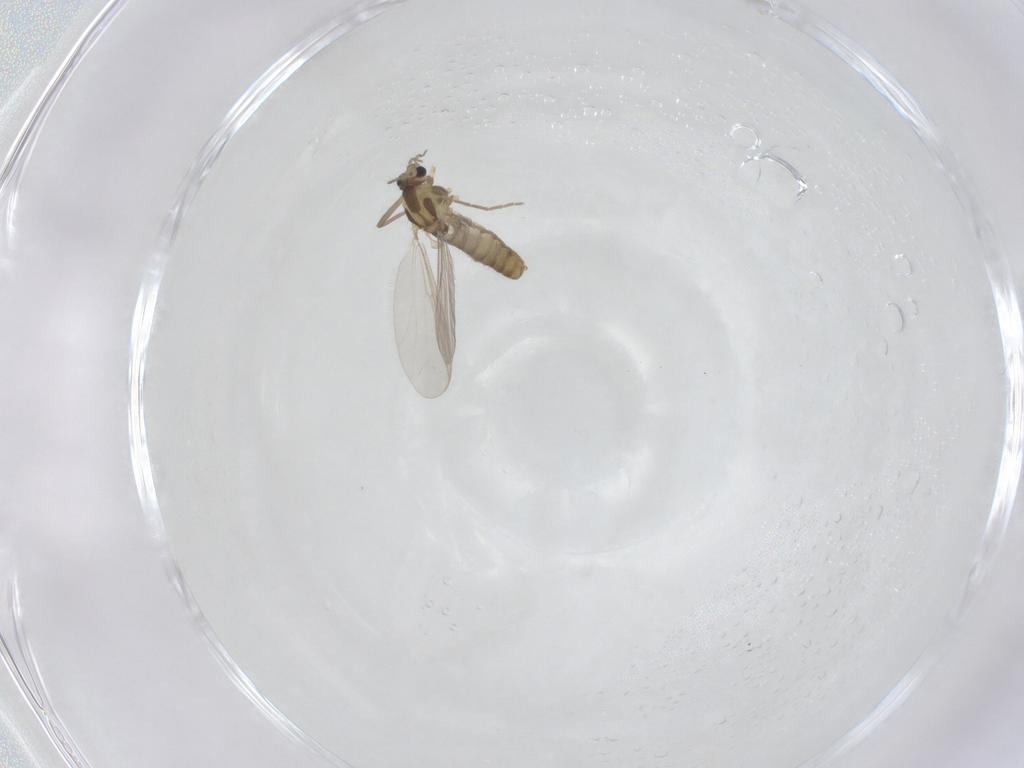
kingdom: Animalia
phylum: Arthropoda
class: Insecta
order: Diptera
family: Chironomidae
